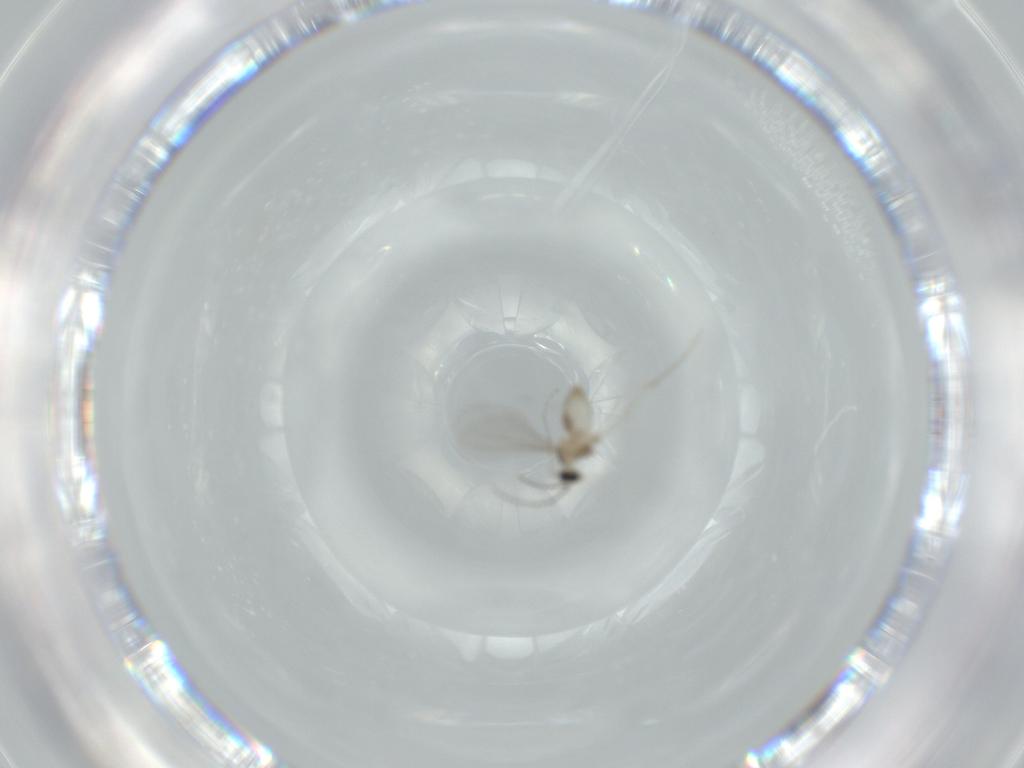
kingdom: Animalia
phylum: Arthropoda
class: Insecta
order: Diptera
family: Cecidomyiidae
